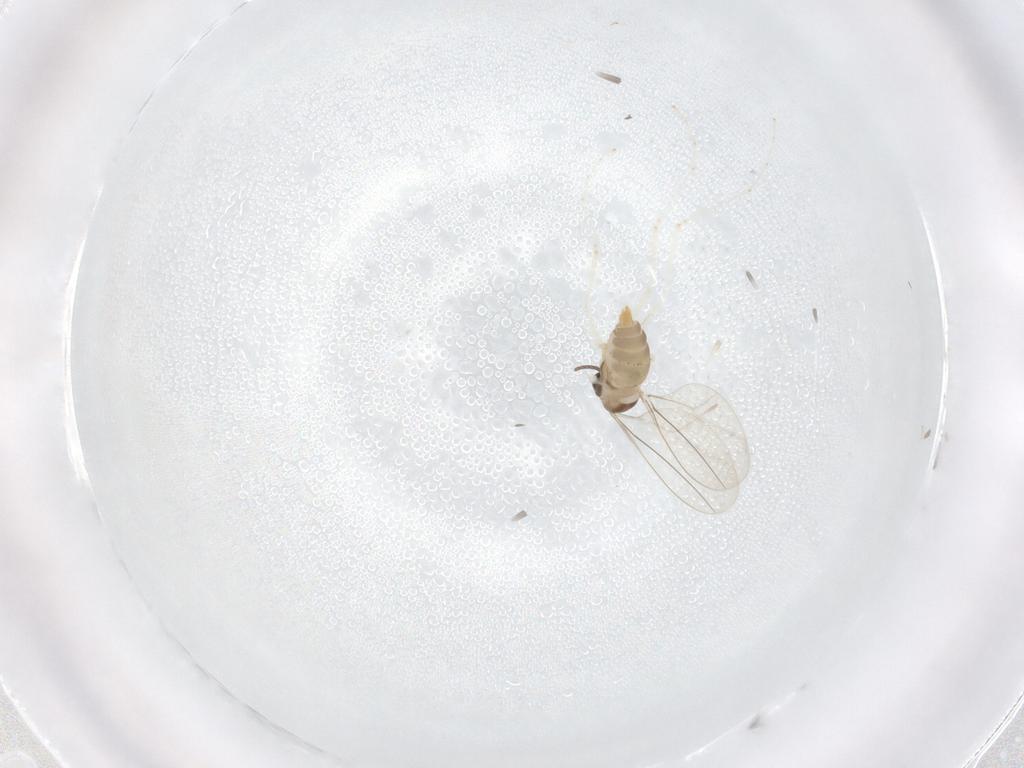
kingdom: Animalia
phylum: Arthropoda
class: Insecta
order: Diptera
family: Cecidomyiidae
